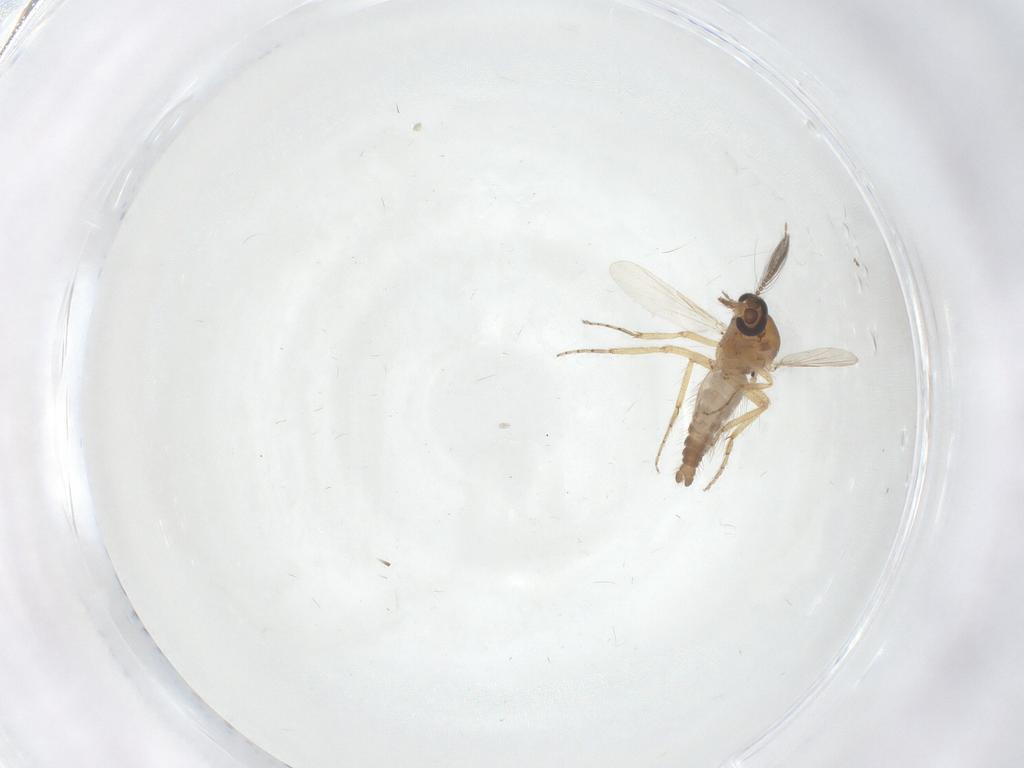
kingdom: Animalia
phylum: Arthropoda
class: Insecta
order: Diptera
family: Ceratopogonidae
